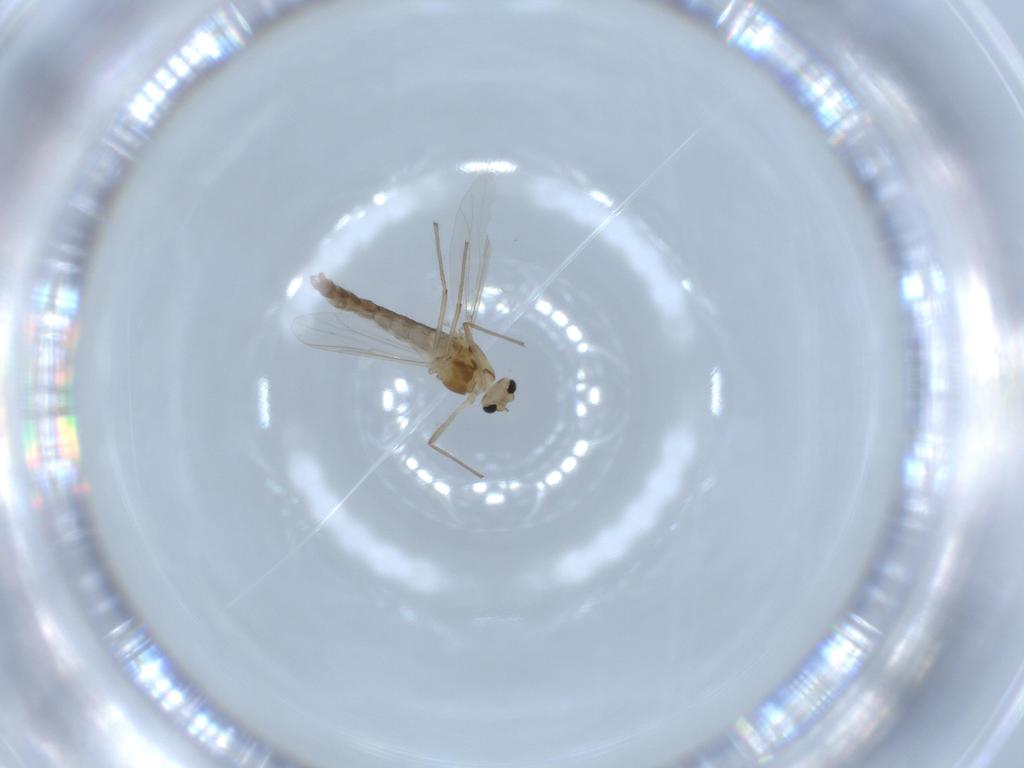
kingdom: Animalia
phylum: Arthropoda
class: Insecta
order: Diptera
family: Chironomidae
